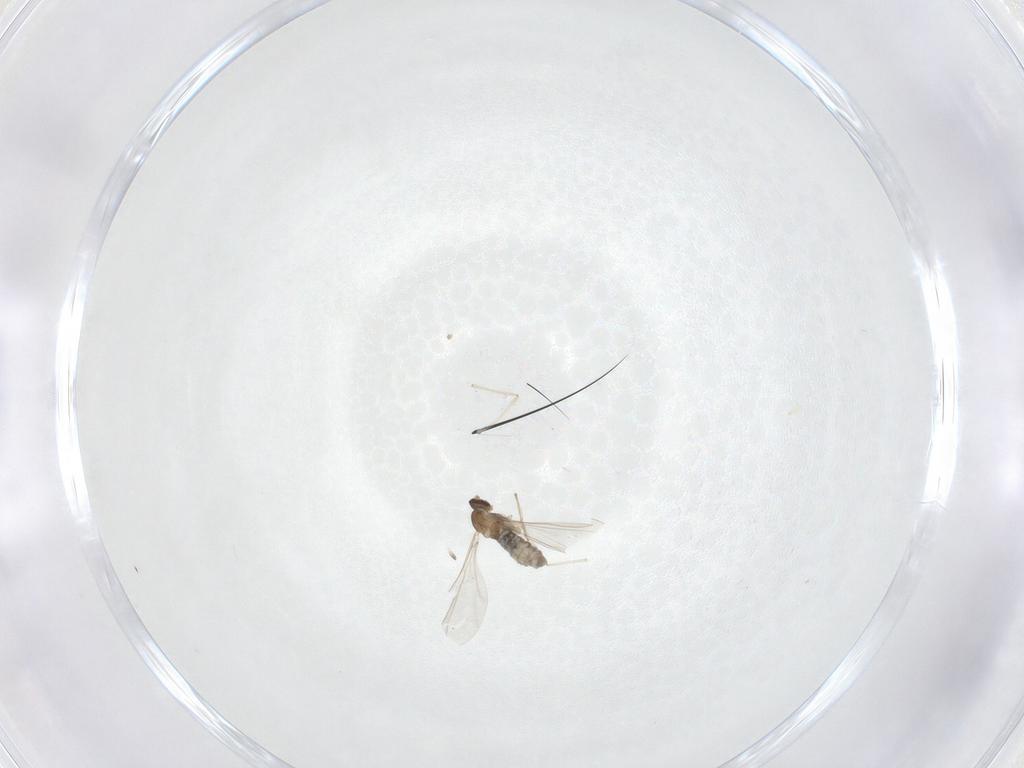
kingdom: Animalia
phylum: Arthropoda
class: Insecta
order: Diptera
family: Cecidomyiidae
